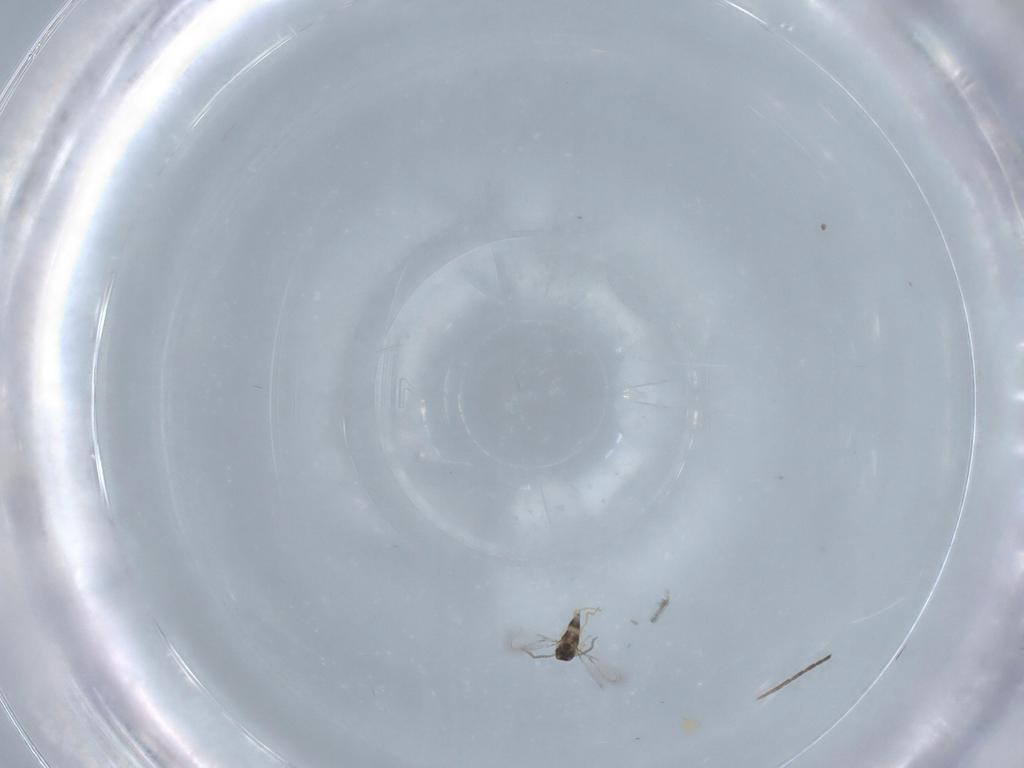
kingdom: Animalia
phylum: Arthropoda
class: Insecta
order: Hymenoptera
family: Mymaridae
